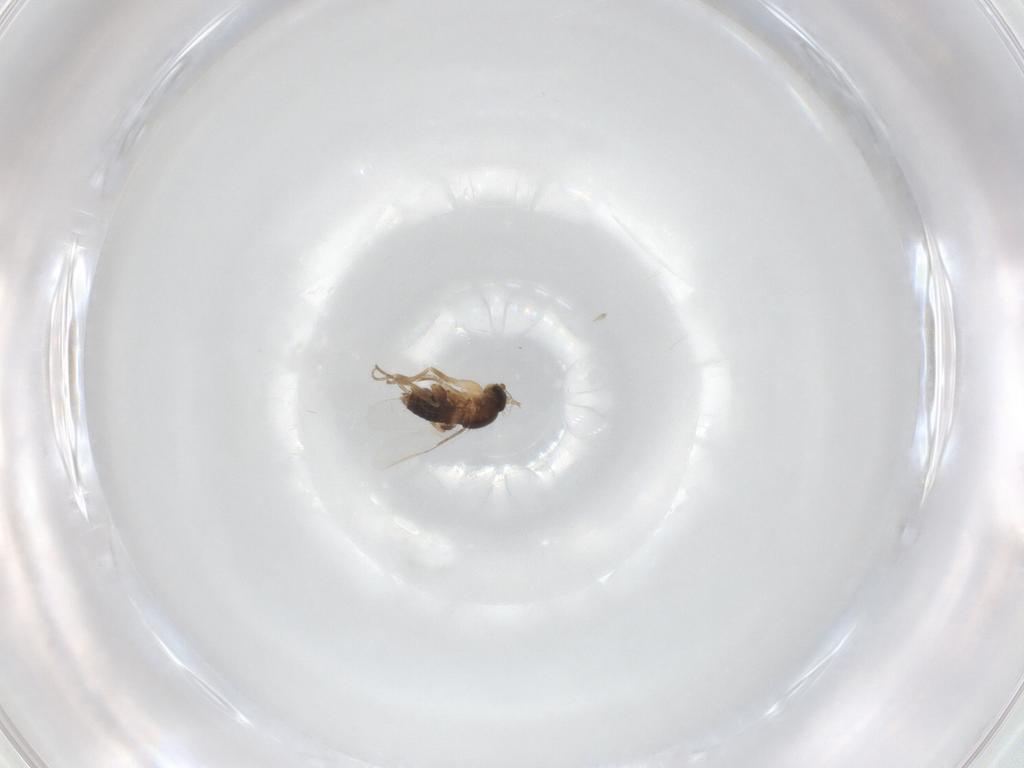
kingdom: Animalia
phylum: Arthropoda
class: Insecta
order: Diptera
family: Phoridae
